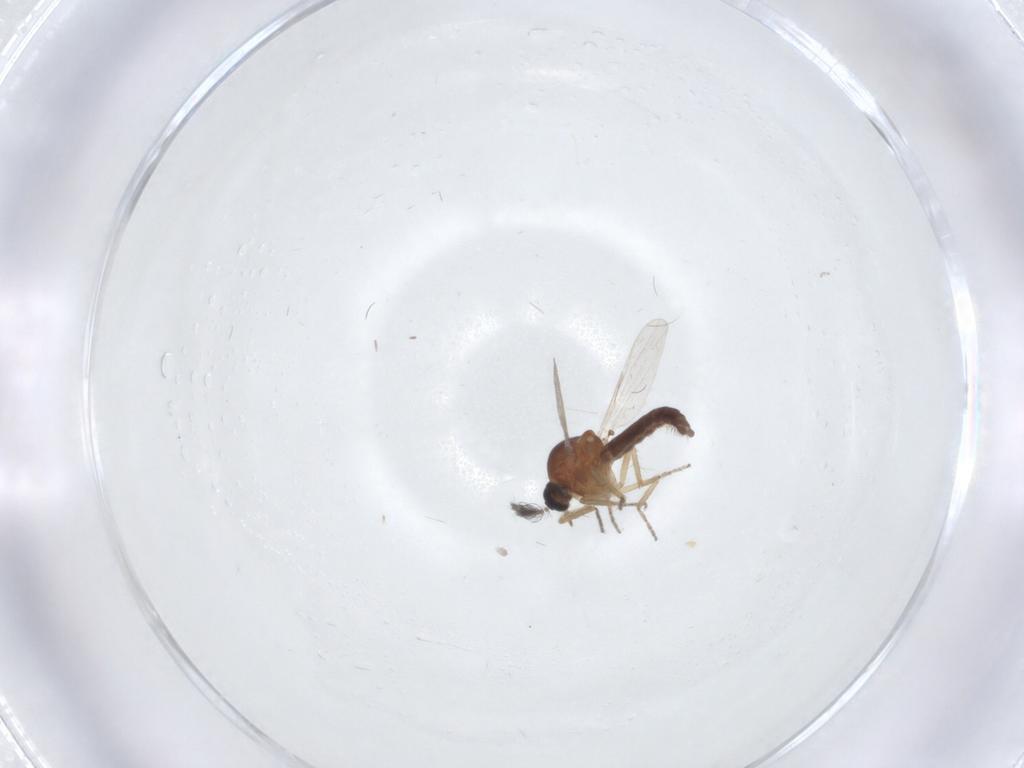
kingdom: Animalia
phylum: Arthropoda
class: Insecta
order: Diptera
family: Ceratopogonidae
